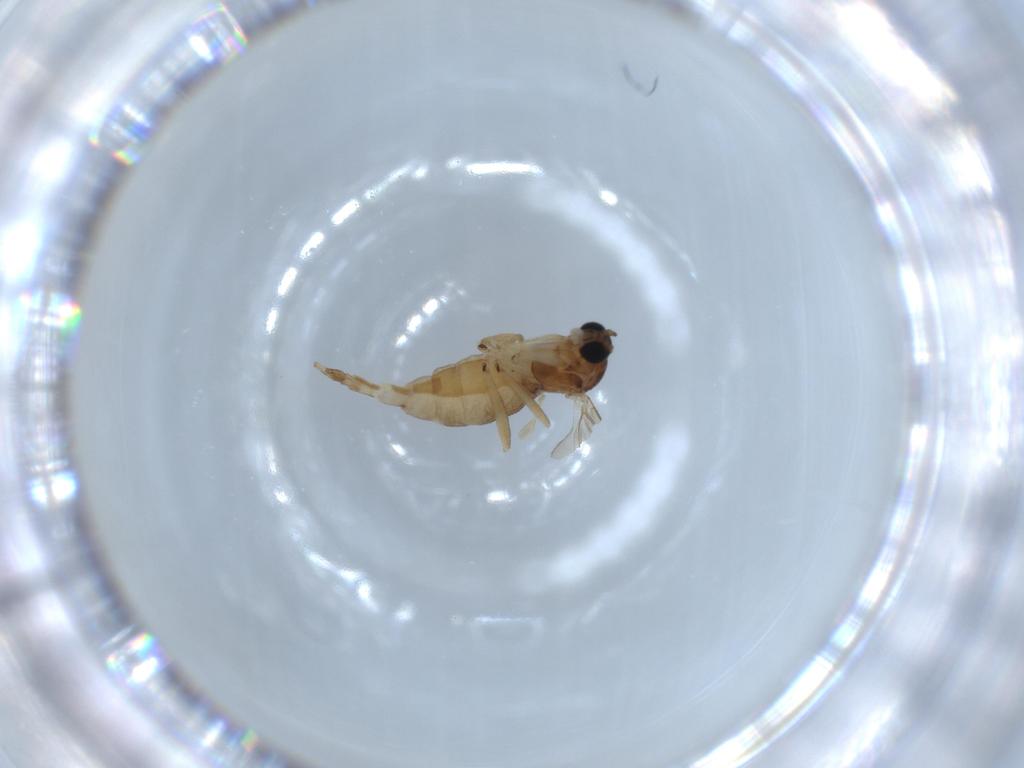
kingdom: Animalia
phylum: Arthropoda
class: Insecta
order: Diptera
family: Sciaridae
